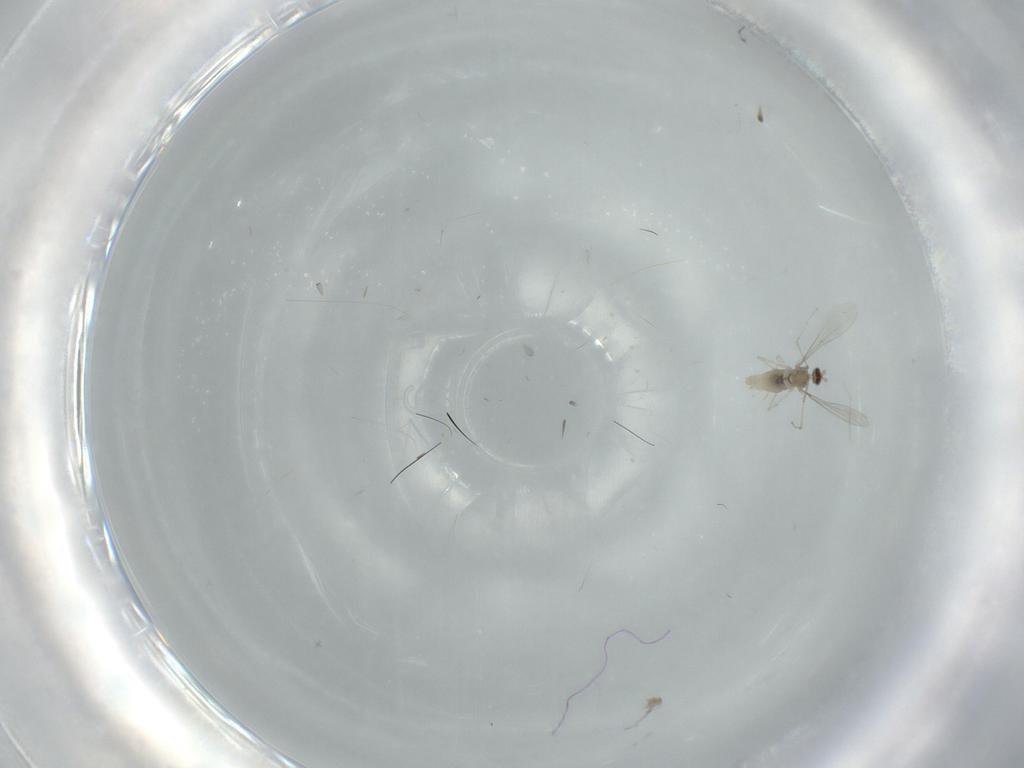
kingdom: Animalia
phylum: Arthropoda
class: Insecta
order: Diptera
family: Cecidomyiidae
